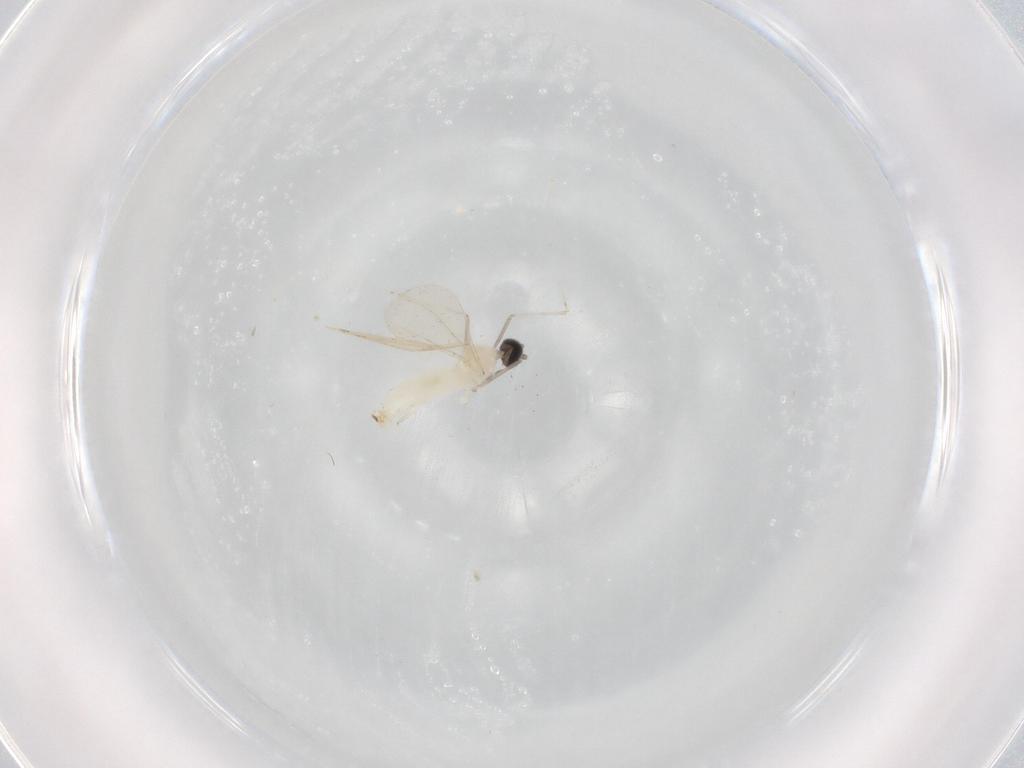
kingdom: Animalia
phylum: Arthropoda
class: Insecta
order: Diptera
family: Cecidomyiidae
